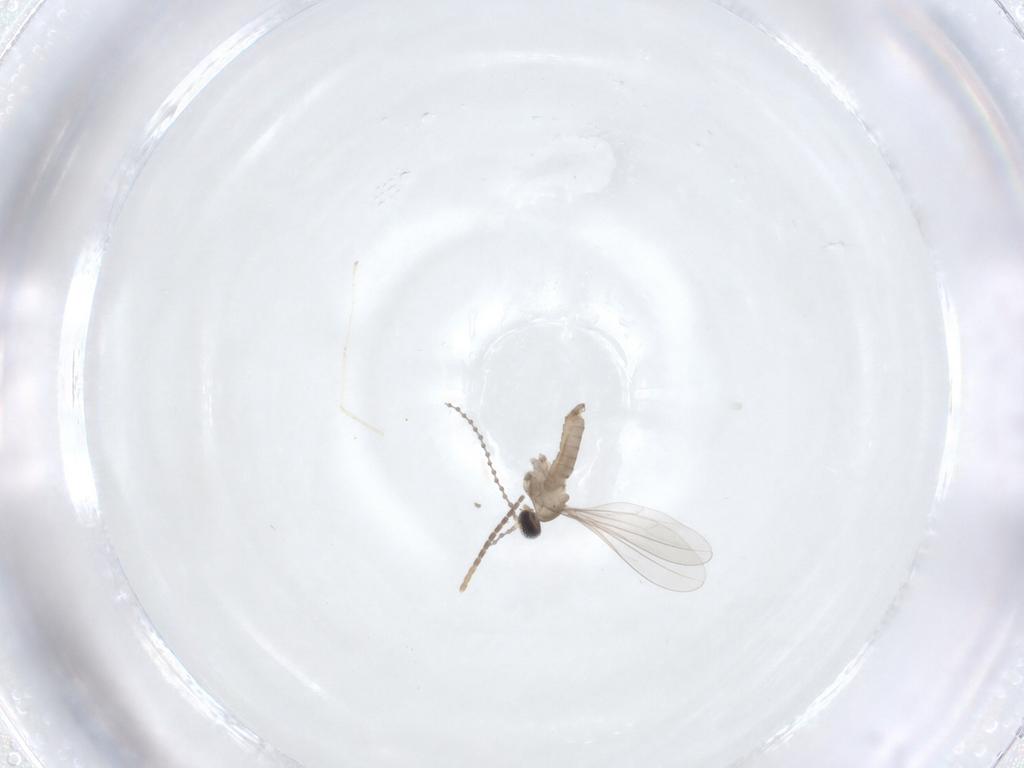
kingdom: Animalia
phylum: Arthropoda
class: Insecta
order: Diptera
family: Cecidomyiidae
